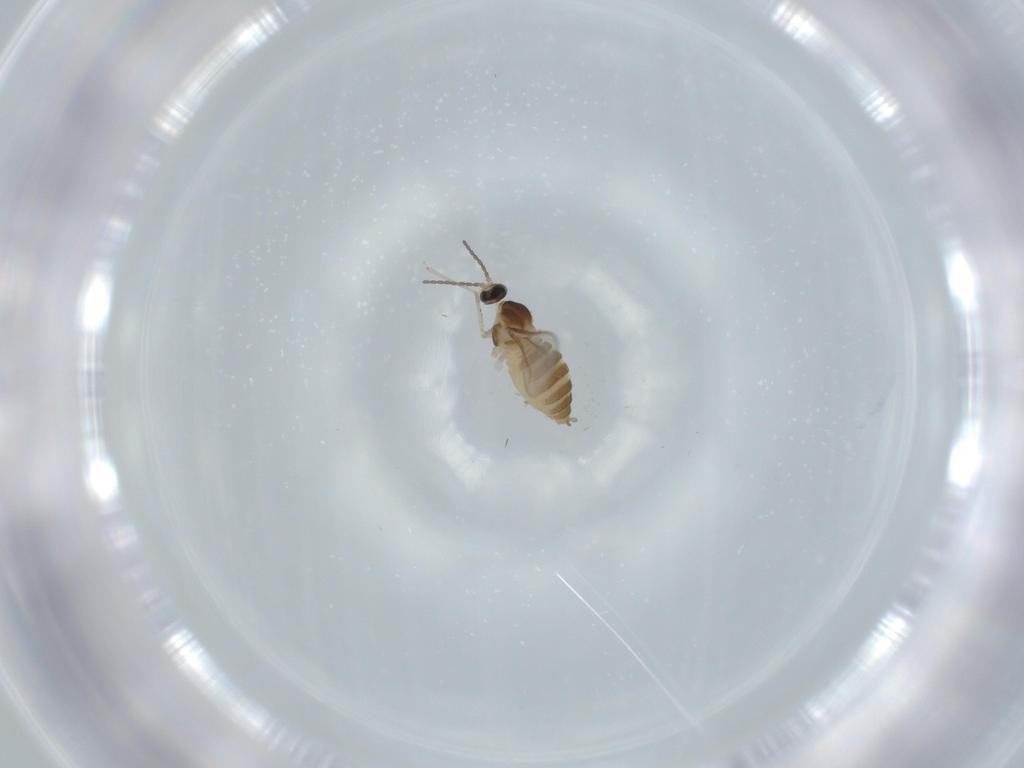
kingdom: Animalia
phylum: Arthropoda
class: Insecta
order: Diptera
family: Cecidomyiidae
